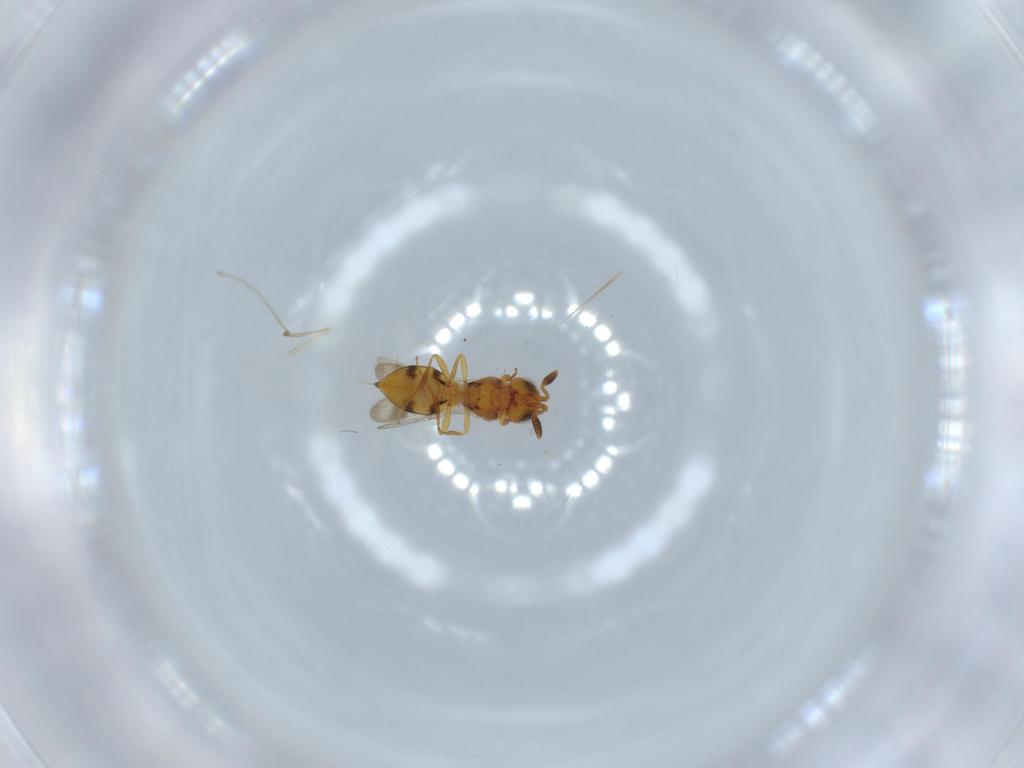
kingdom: Animalia
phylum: Arthropoda
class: Insecta
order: Hymenoptera
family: Scelionidae
